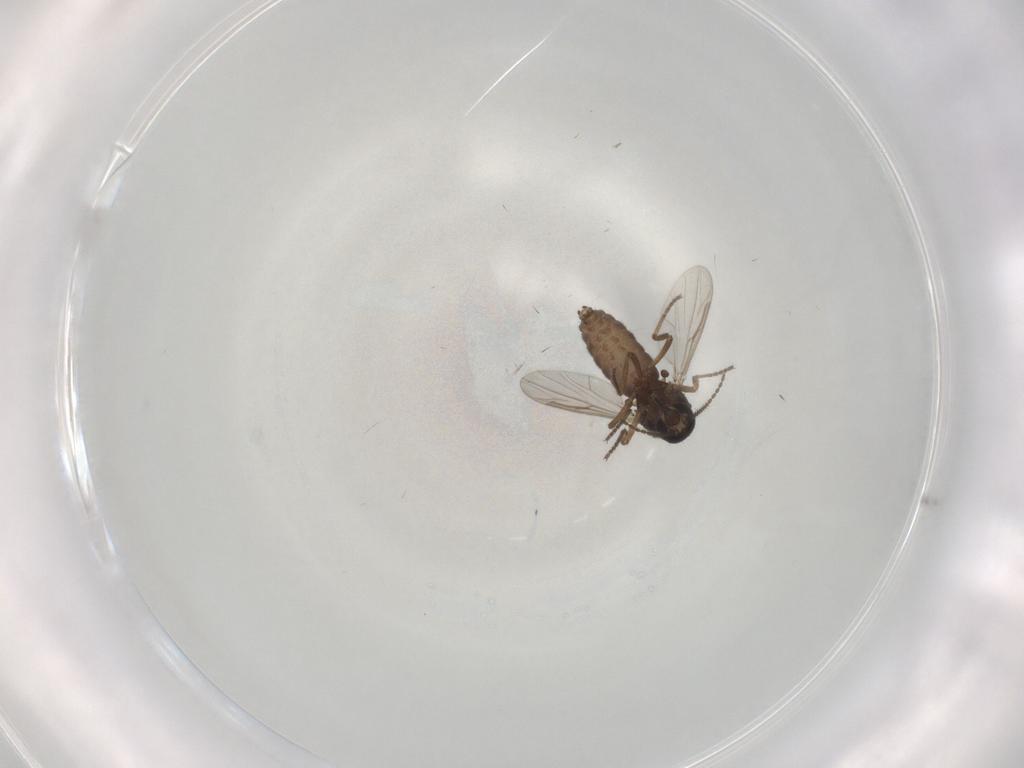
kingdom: Animalia
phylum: Arthropoda
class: Insecta
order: Diptera
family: Ceratopogonidae
